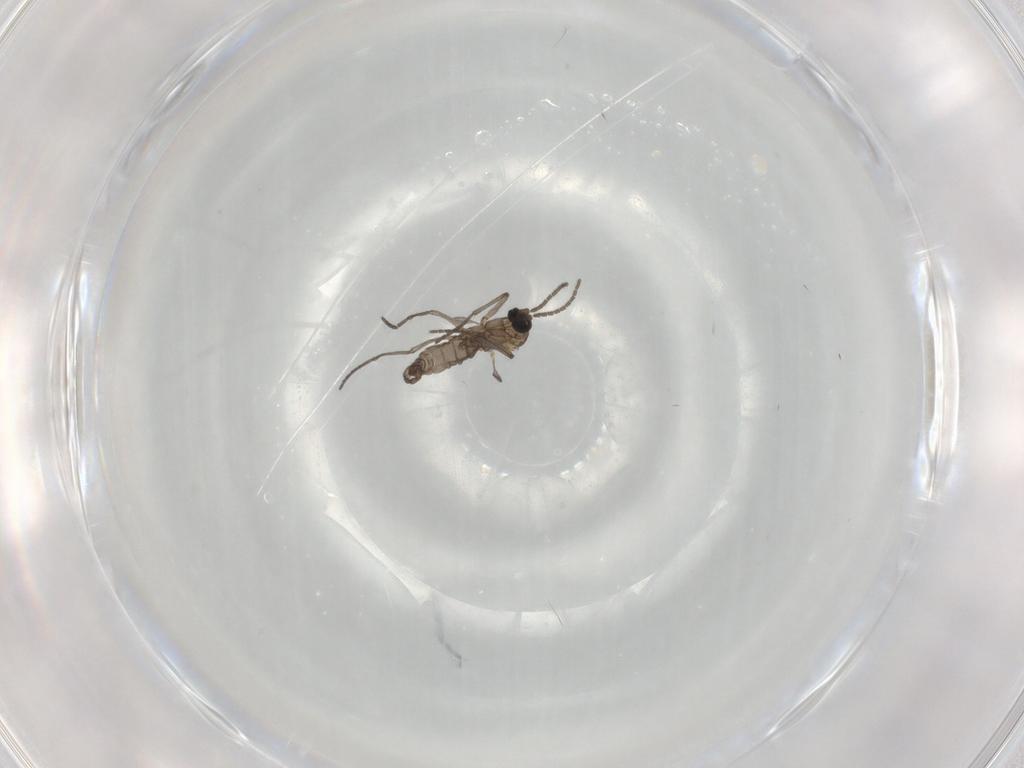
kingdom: Animalia
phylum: Arthropoda
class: Insecta
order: Diptera
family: Sciaridae
